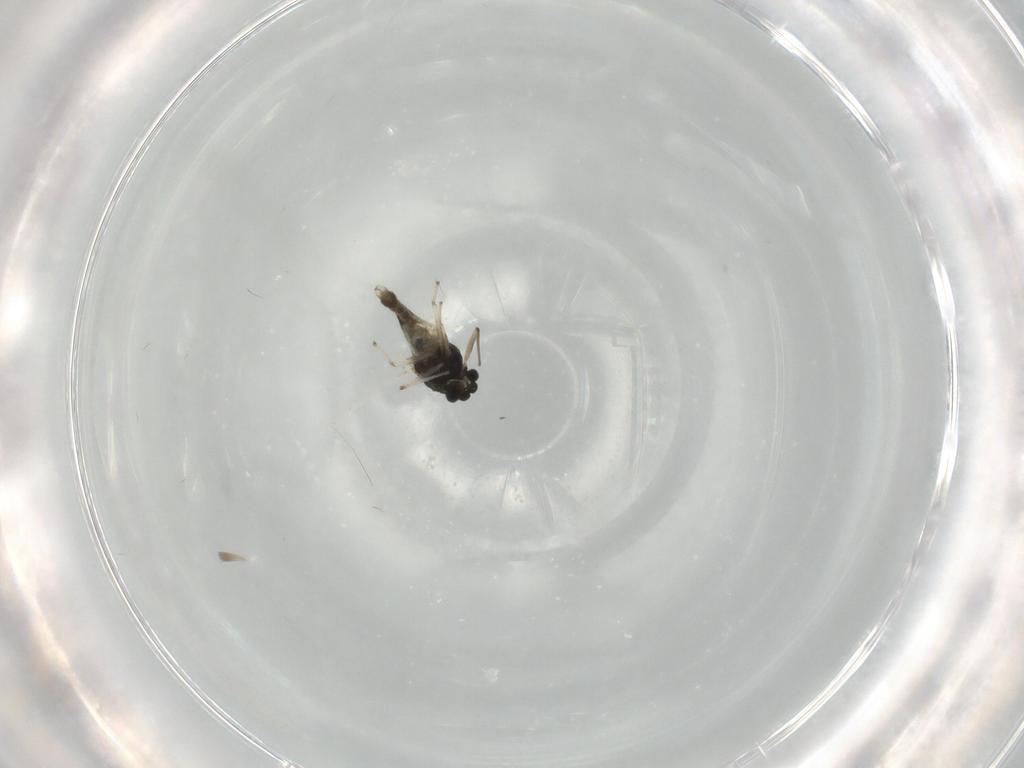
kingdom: Animalia
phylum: Arthropoda
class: Insecta
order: Diptera
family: Chironomidae
